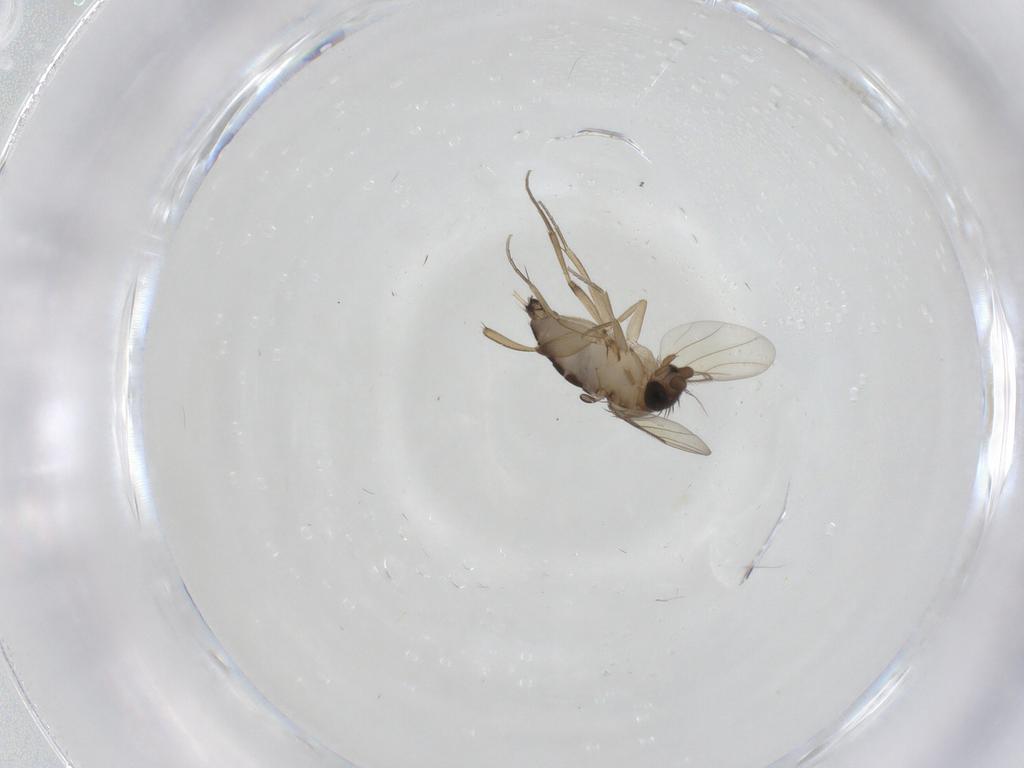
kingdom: Animalia
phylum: Arthropoda
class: Insecta
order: Diptera
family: Phoridae
